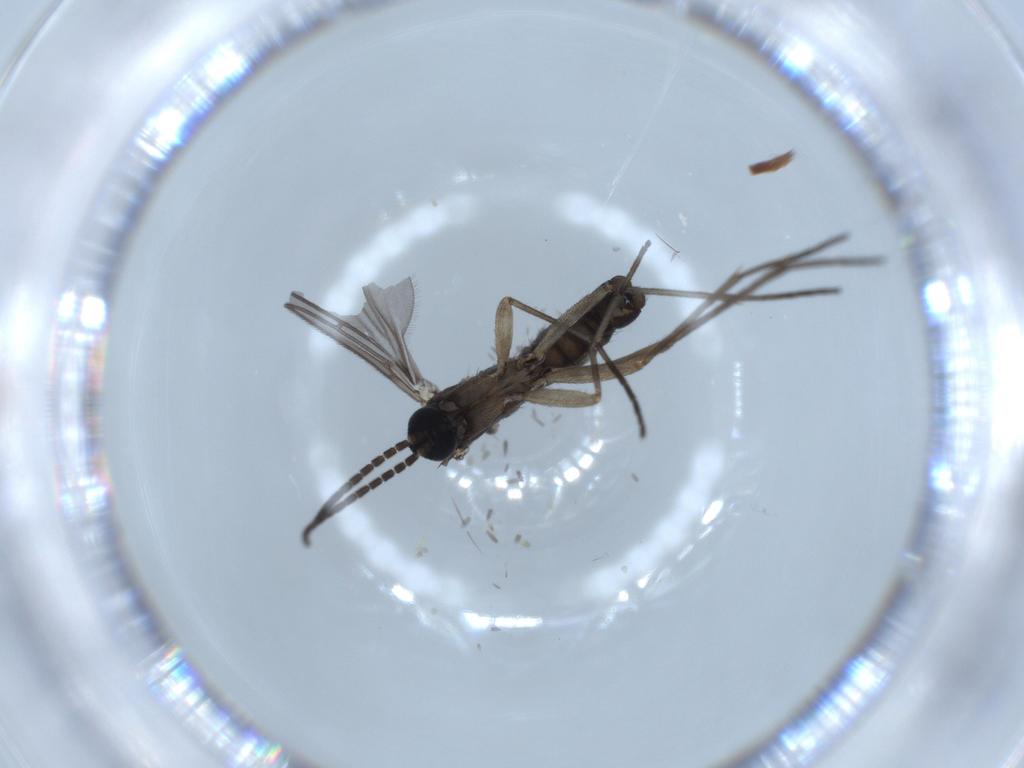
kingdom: Animalia
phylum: Arthropoda
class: Insecta
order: Diptera
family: Sciaridae
